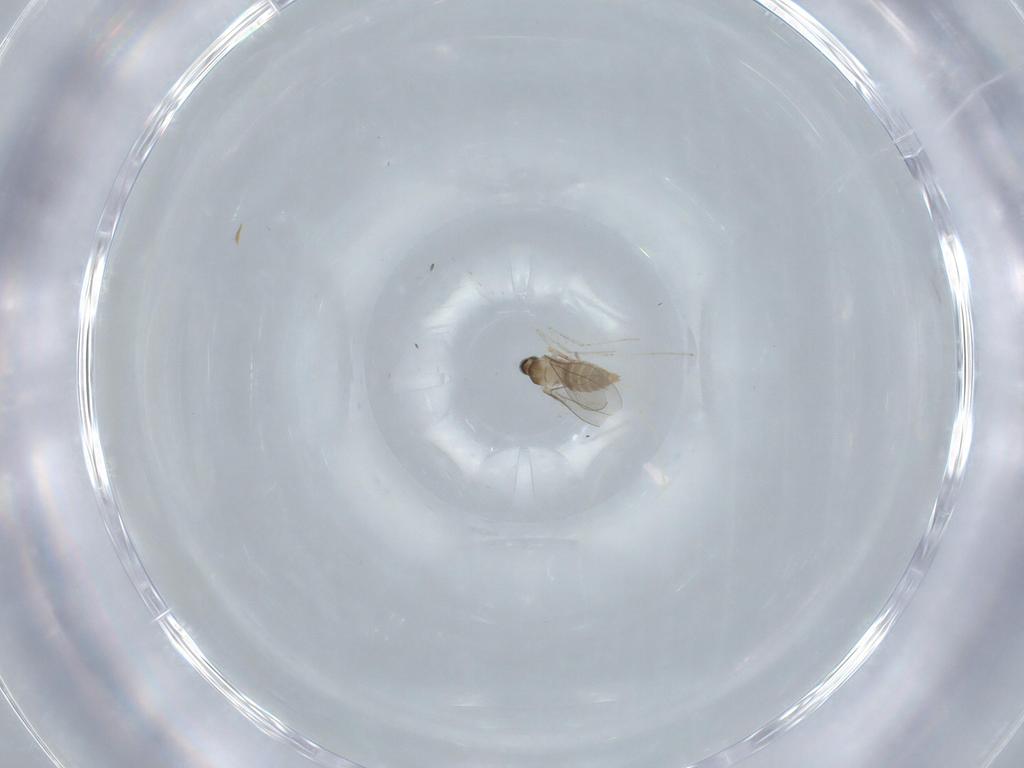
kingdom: Animalia
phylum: Arthropoda
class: Insecta
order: Diptera
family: Cecidomyiidae
